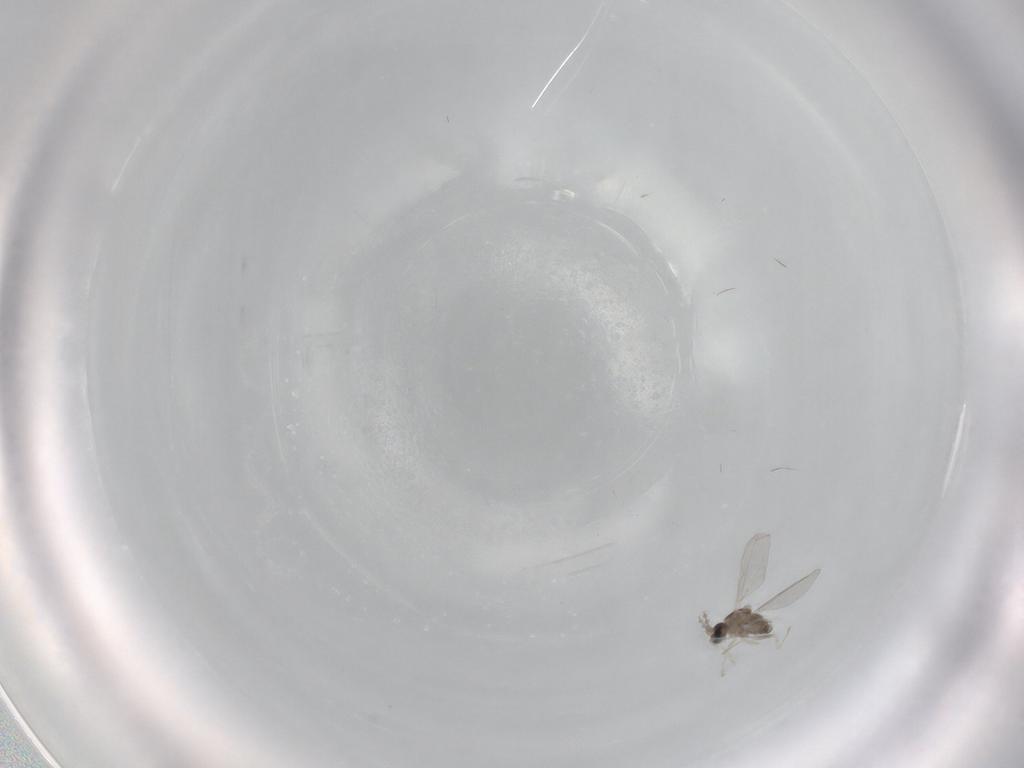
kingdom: Animalia
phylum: Arthropoda
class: Insecta
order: Diptera
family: Cecidomyiidae
